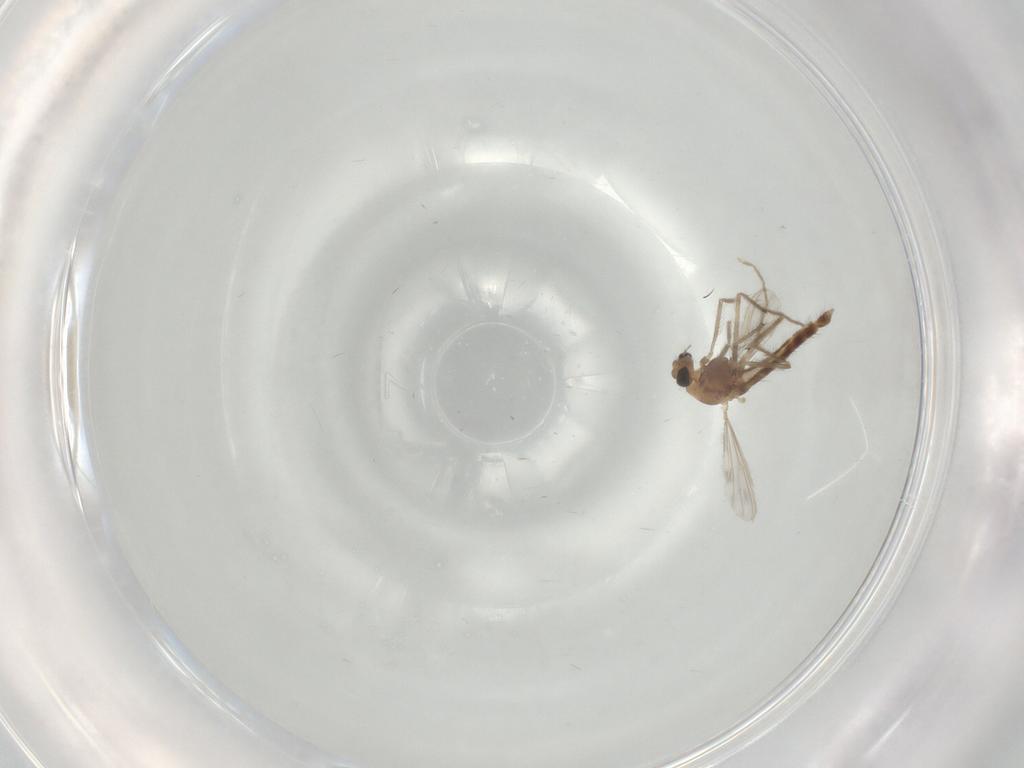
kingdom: Animalia
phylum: Arthropoda
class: Insecta
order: Diptera
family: Chironomidae
